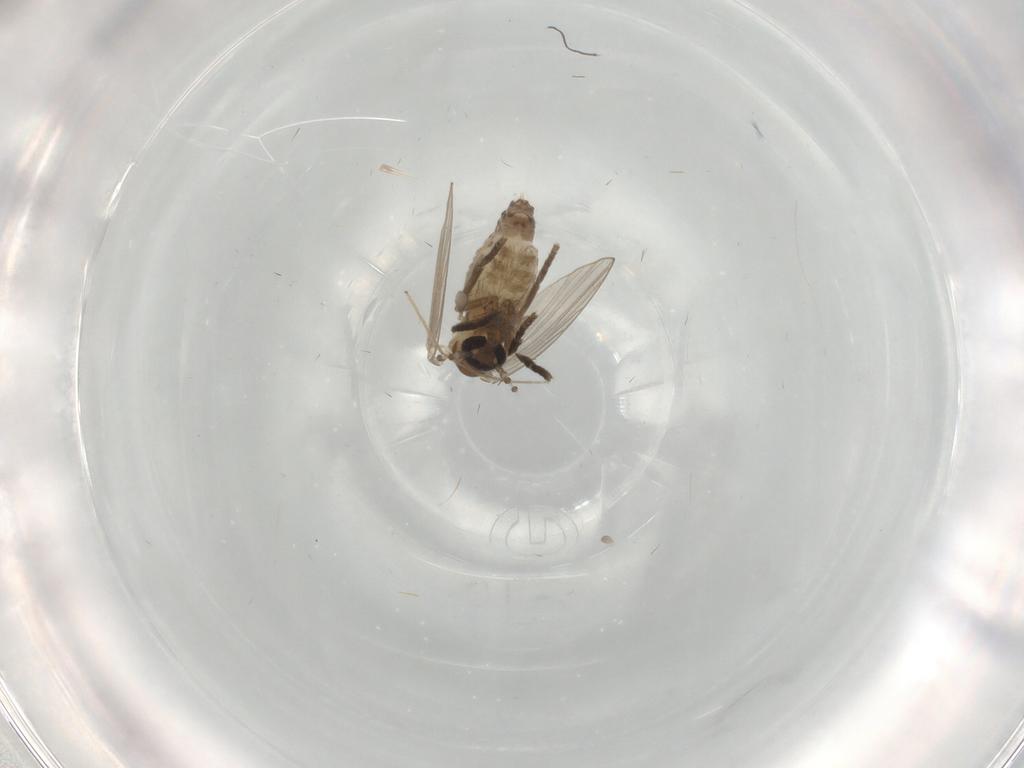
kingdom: Animalia
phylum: Arthropoda
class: Insecta
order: Diptera
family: Psychodidae
